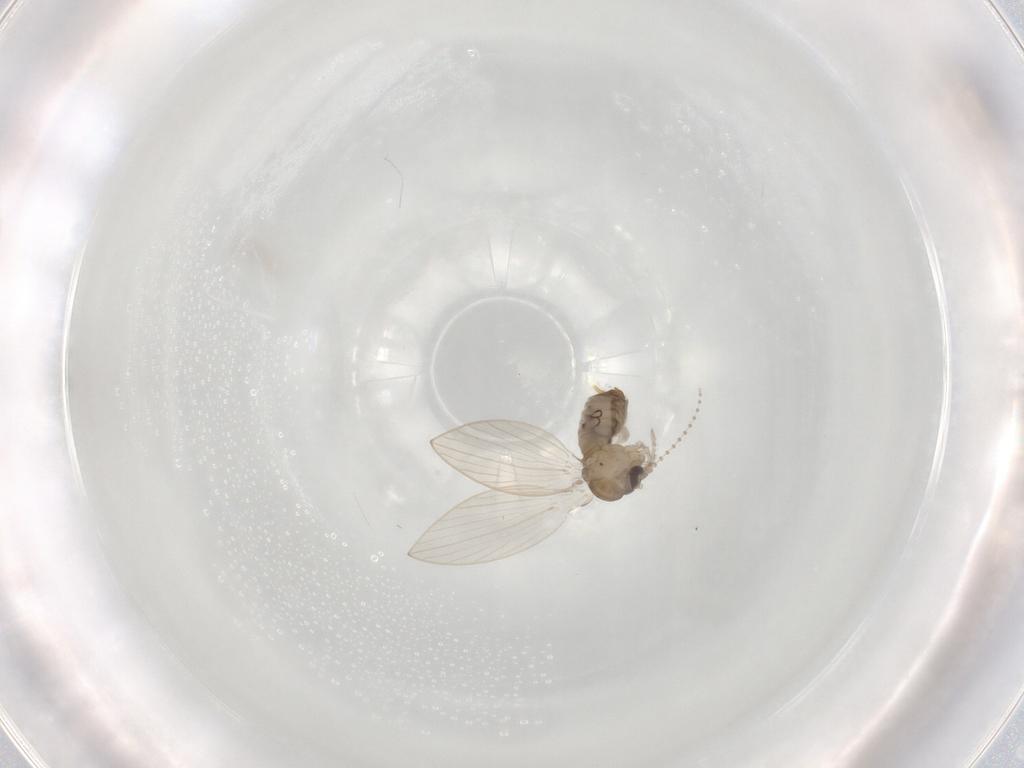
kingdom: Animalia
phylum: Arthropoda
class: Insecta
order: Diptera
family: Psychodidae
